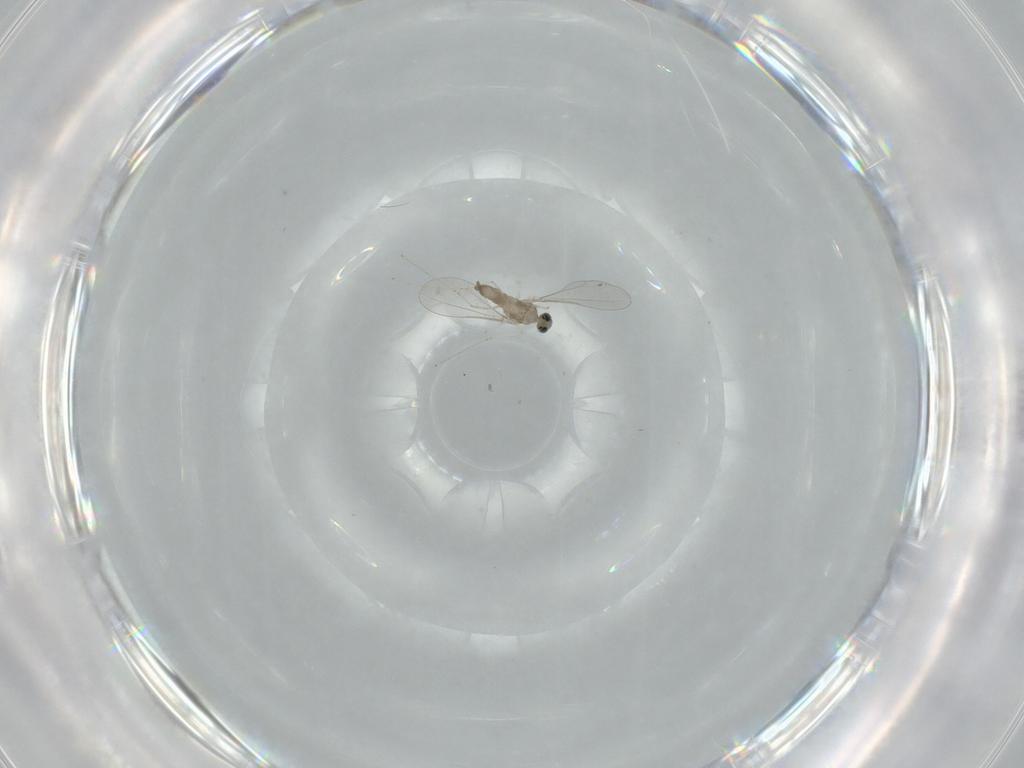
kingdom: Animalia
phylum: Arthropoda
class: Insecta
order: Diptera
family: Cecidomyiidae
